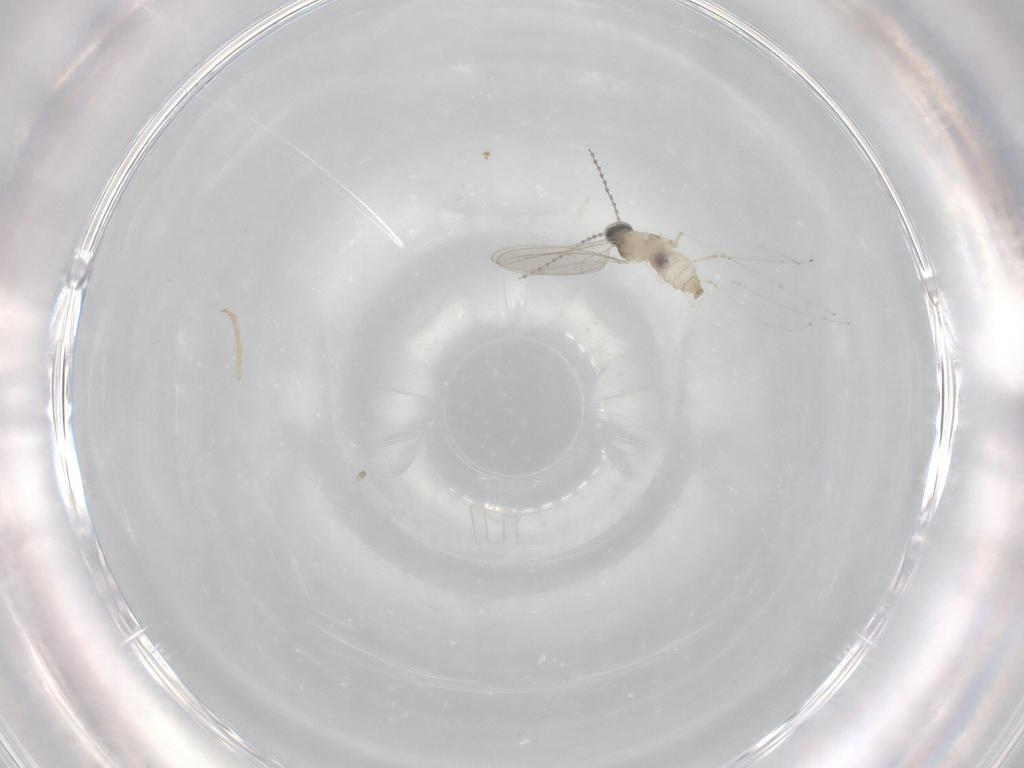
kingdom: Animalia
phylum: Arthropoda
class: Insecta
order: Diptera
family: Cecidomyiidae
